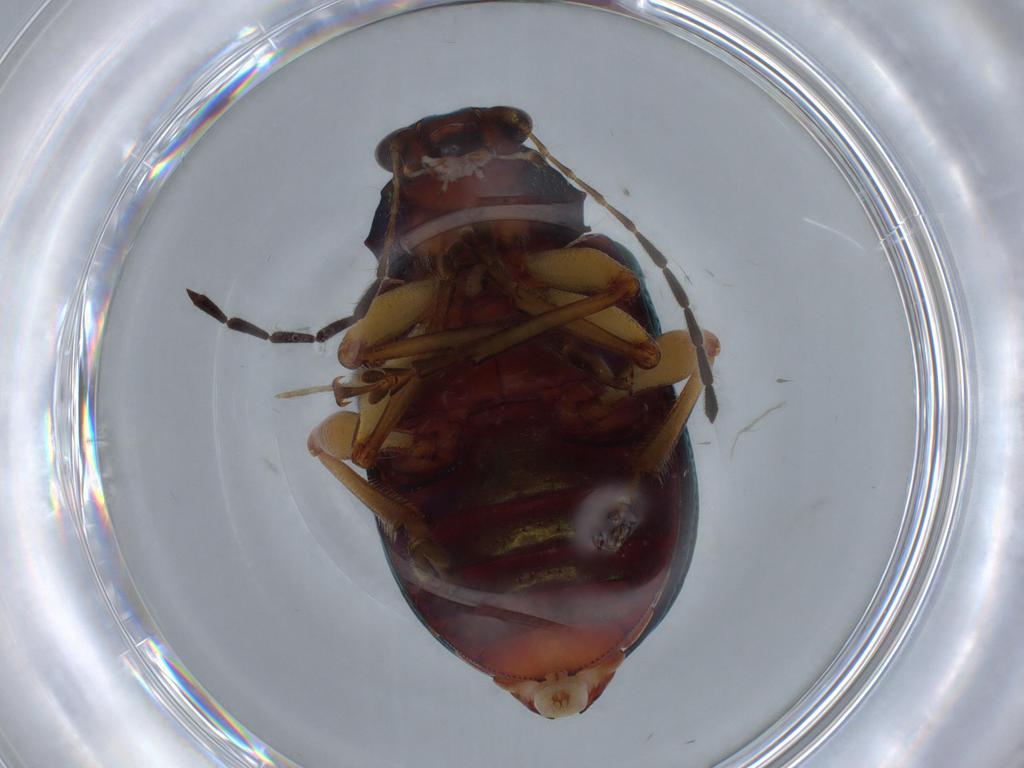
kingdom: Animalia
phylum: Arthropoda
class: Insecta
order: Coleoptera
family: Chrysomelidae
